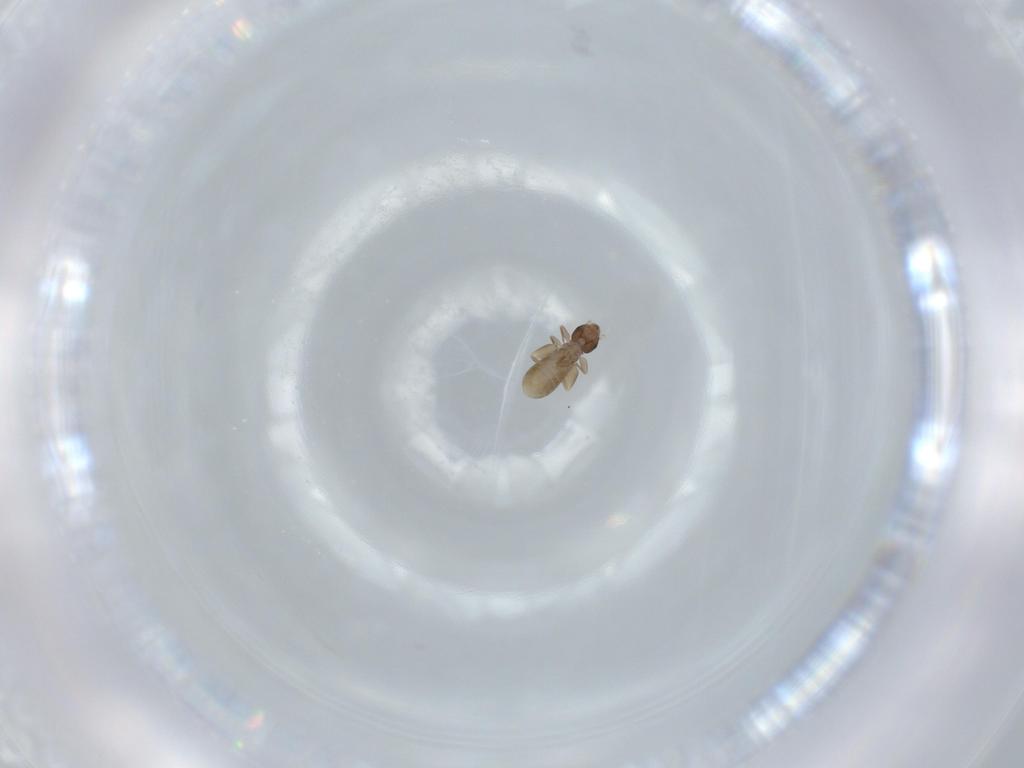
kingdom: Animalia
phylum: Arthropoda
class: Insecta
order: Psocodea
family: Liposcelididae
